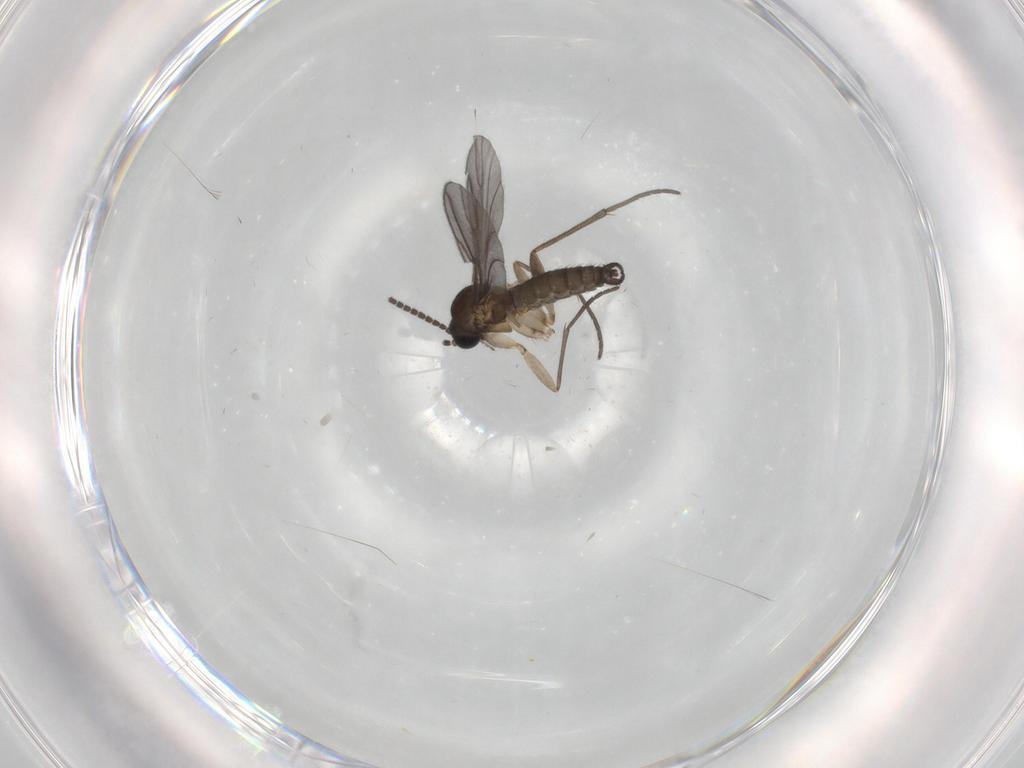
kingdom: Animalia
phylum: Arthropoda
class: Insecta
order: Diptera
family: Sciaridae
